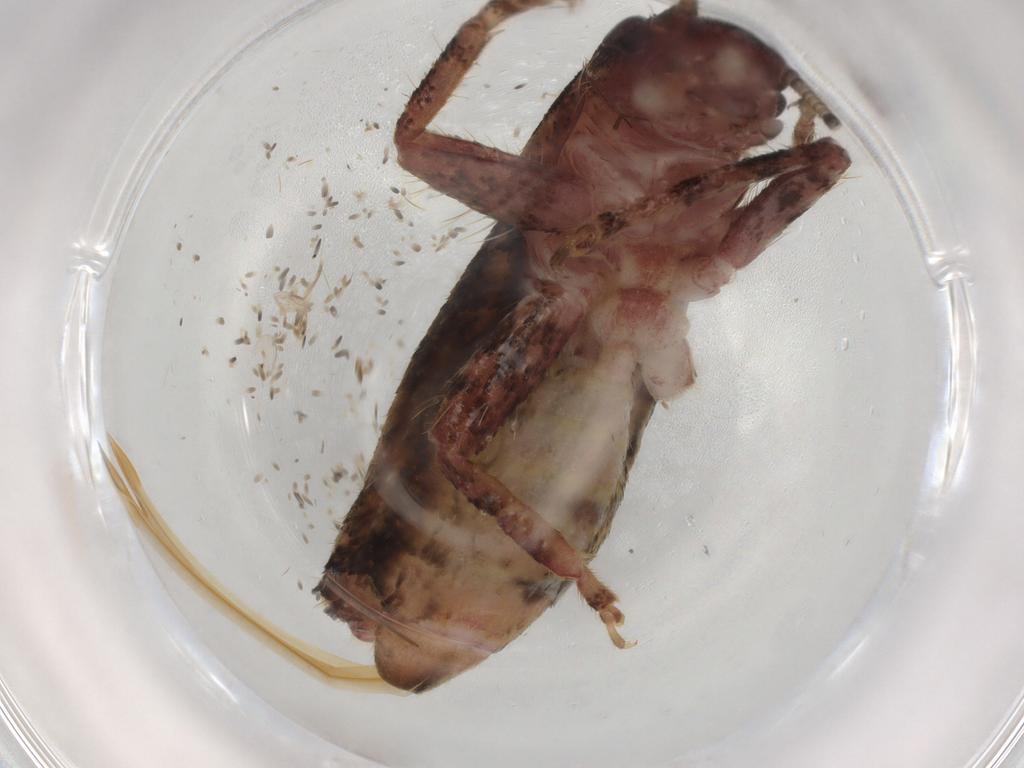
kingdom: Animalia
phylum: Arthropoda
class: Insecta
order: Orthoptera
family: Mogoplistidae
